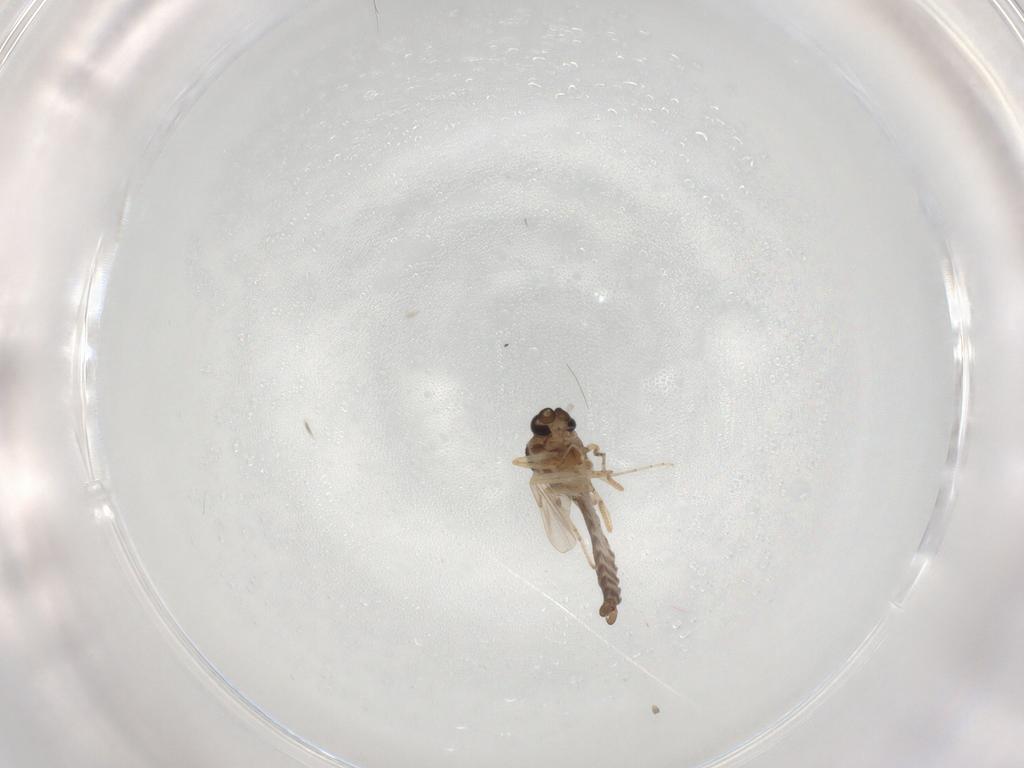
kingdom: Animalia
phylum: Arthropoda
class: Insecta
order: Diptera
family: Ceratopogonidae
